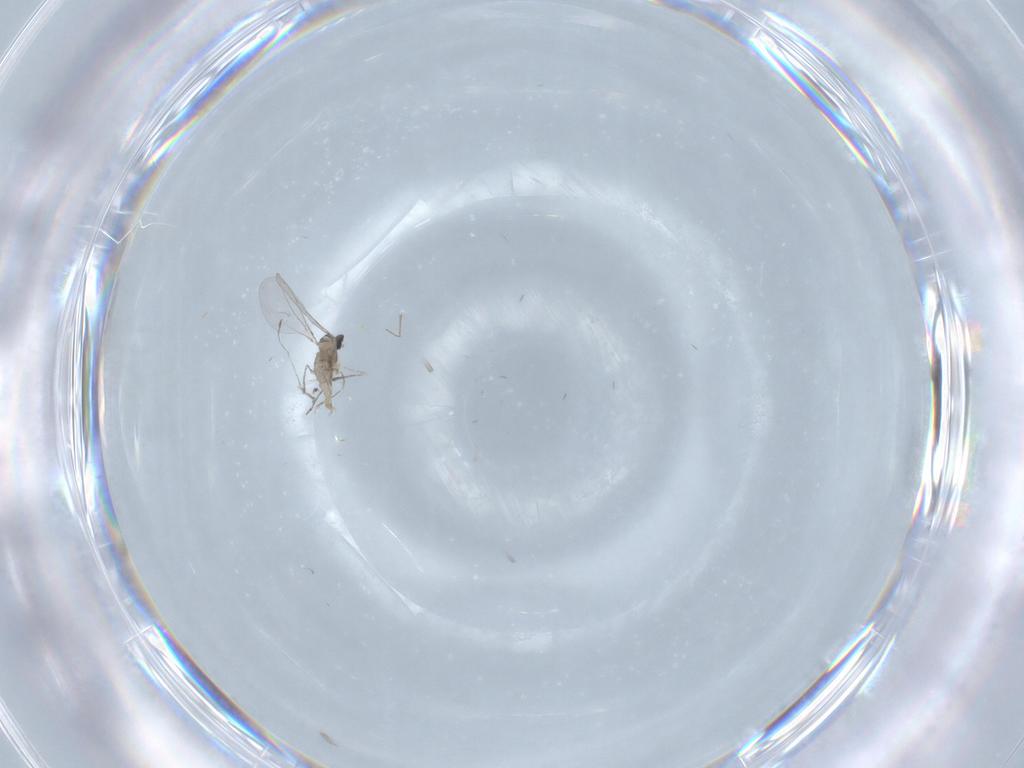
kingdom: Animalia
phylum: Arthropoda
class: Insecta
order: Diptera
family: Cecidomyiidae
